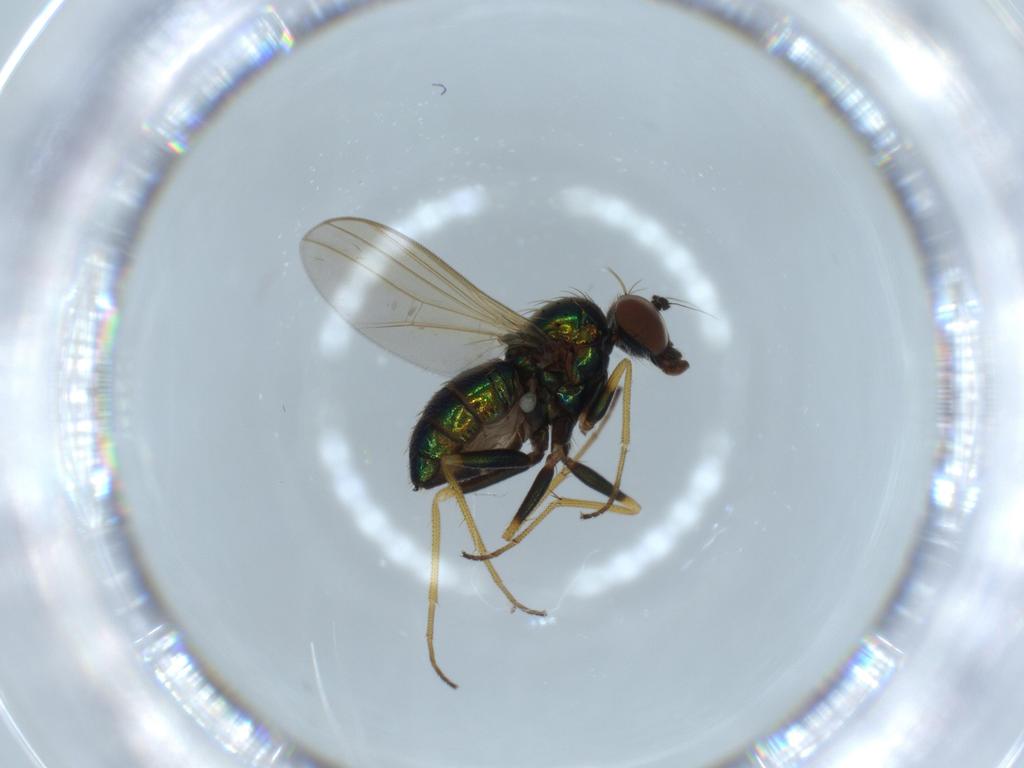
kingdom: Animalia
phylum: Arthropoda
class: Insecta
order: Diptera
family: Dolichopodidae
